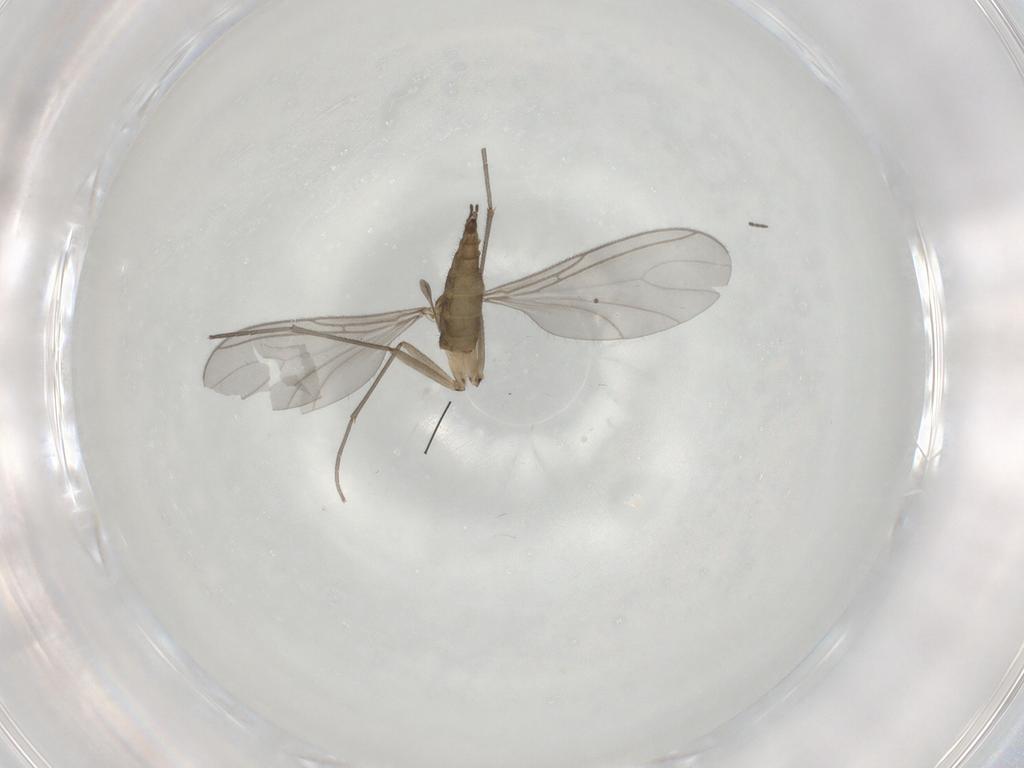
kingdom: Animalia
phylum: Arthropoda
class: Insecta
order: Diptera
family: Sciaridae
